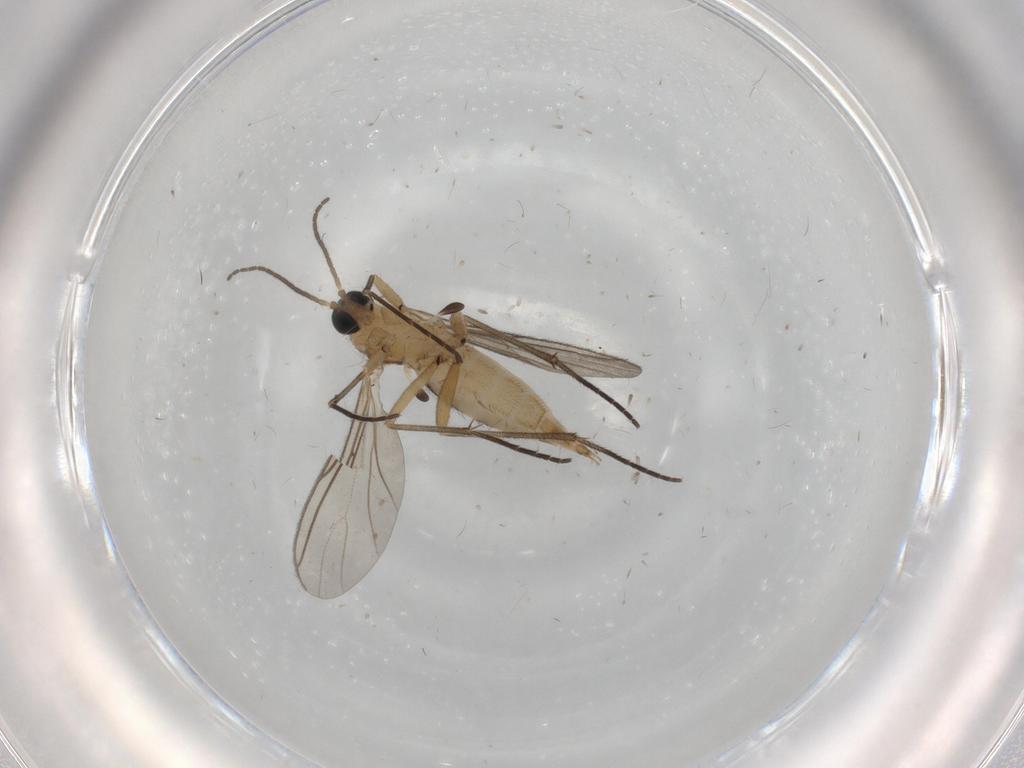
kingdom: Animalia
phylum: Arthropoda
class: Insecta
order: Diptera
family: Sciaridae
